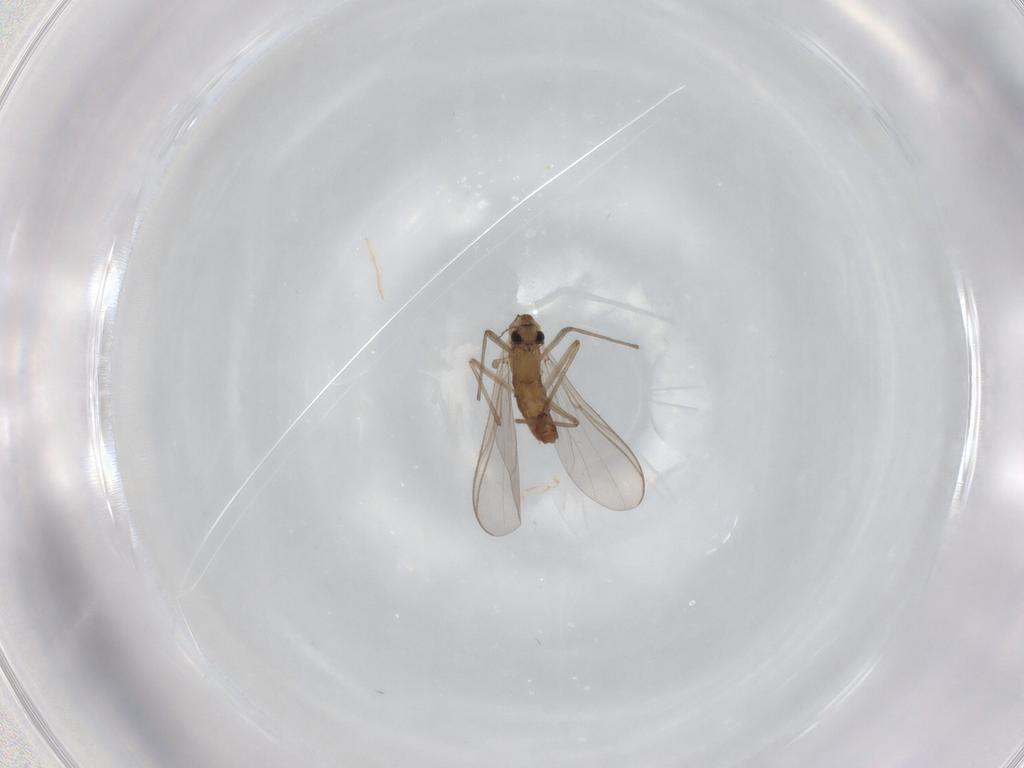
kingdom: Animalia
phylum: Arthropoda
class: Insecta
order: Diptera
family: Chironomidae
